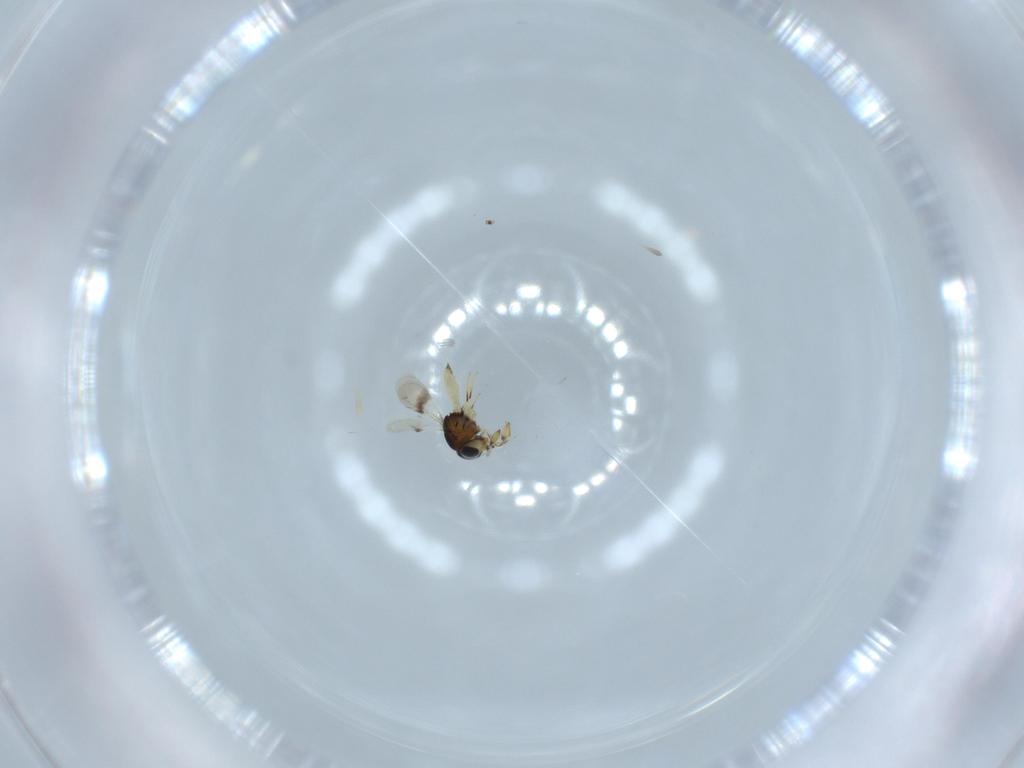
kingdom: Animalia
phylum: Arthropoda
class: Insecta
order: Hymenoptera
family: Scelionidae
